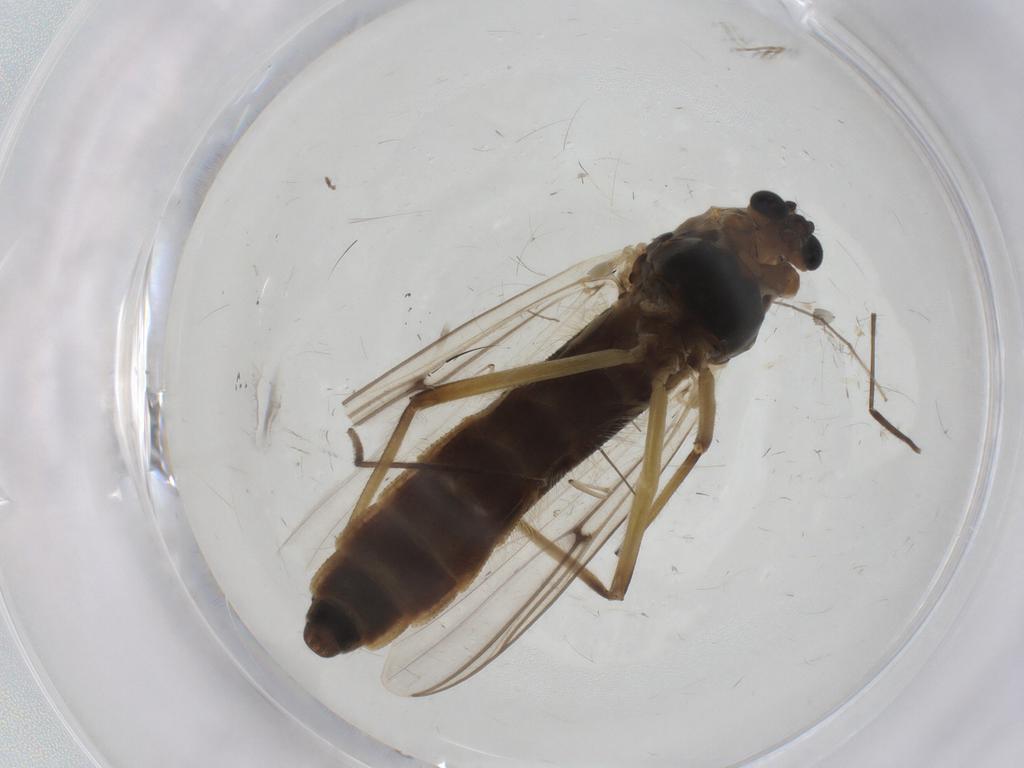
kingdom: Animalia
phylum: Arthropoda
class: Insecta
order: Diptera
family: Chironomidae
